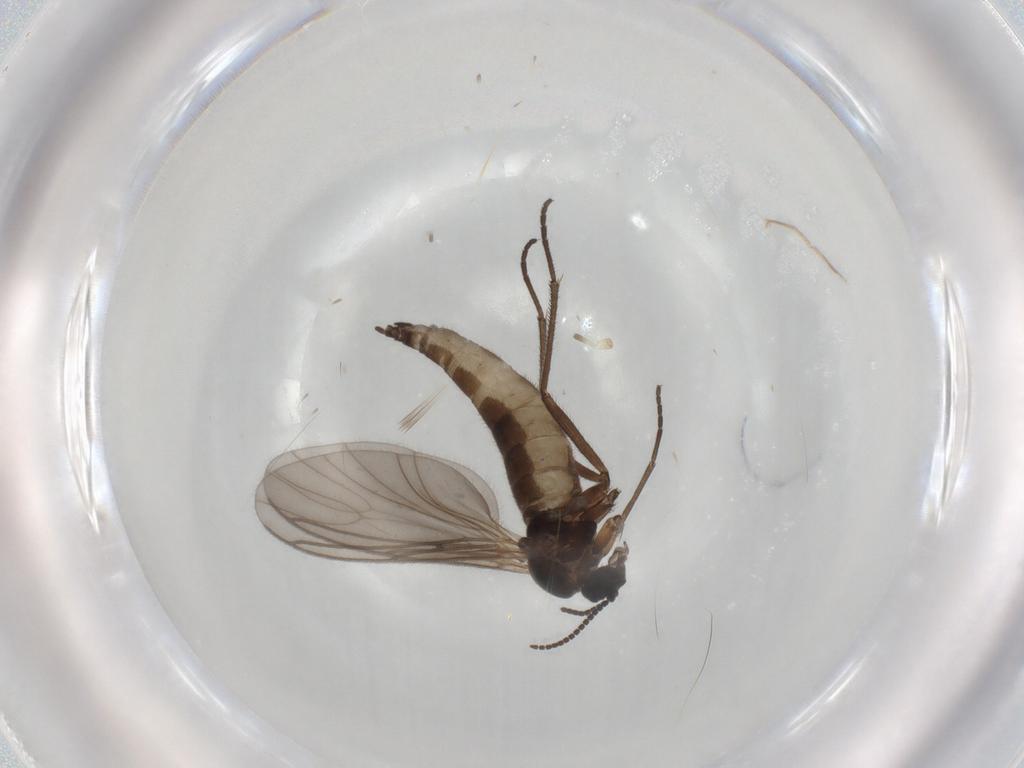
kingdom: Animalia
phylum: Arthropoda
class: Insecta
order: Diptera
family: Sciaridae
